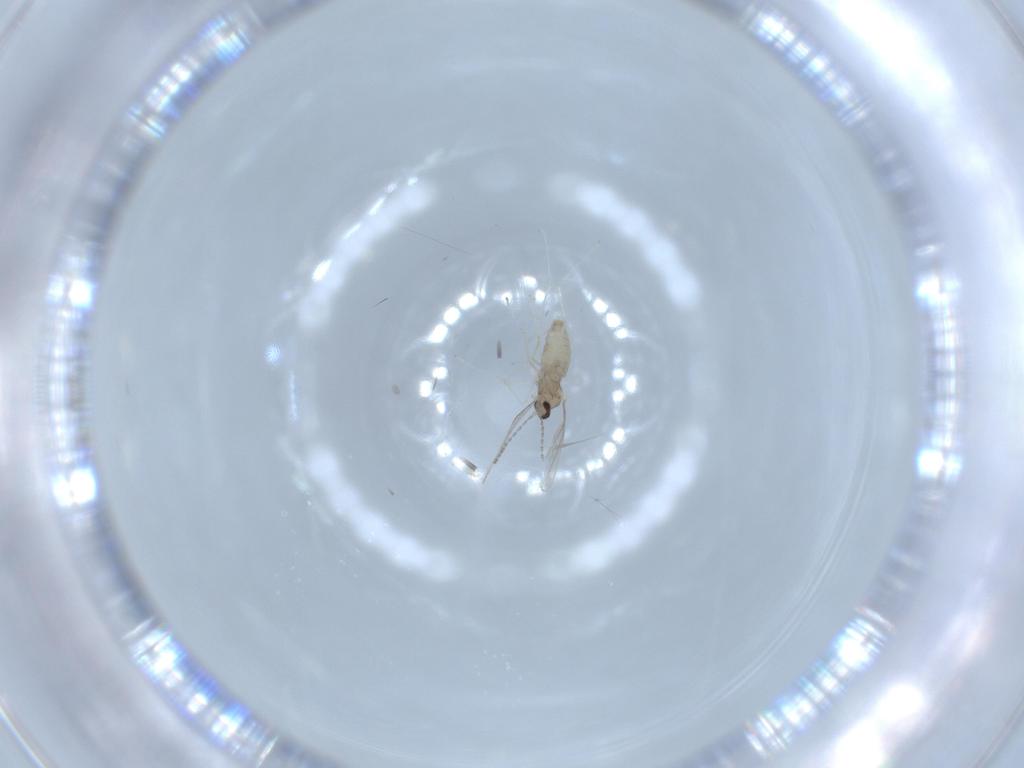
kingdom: Animalia
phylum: Arthropoda
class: Insecta
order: Diptera
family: Cecidomyiidae
